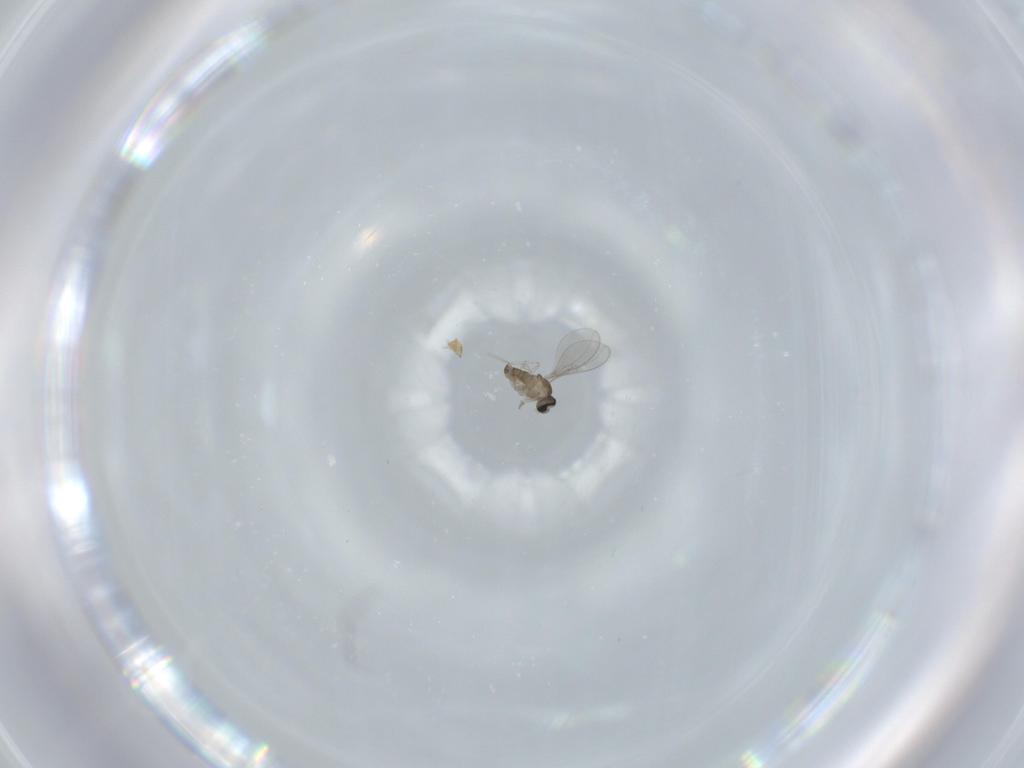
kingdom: Animalia
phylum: Arthropoda
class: Insecta
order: Diptera
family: Cecidomyiidae
